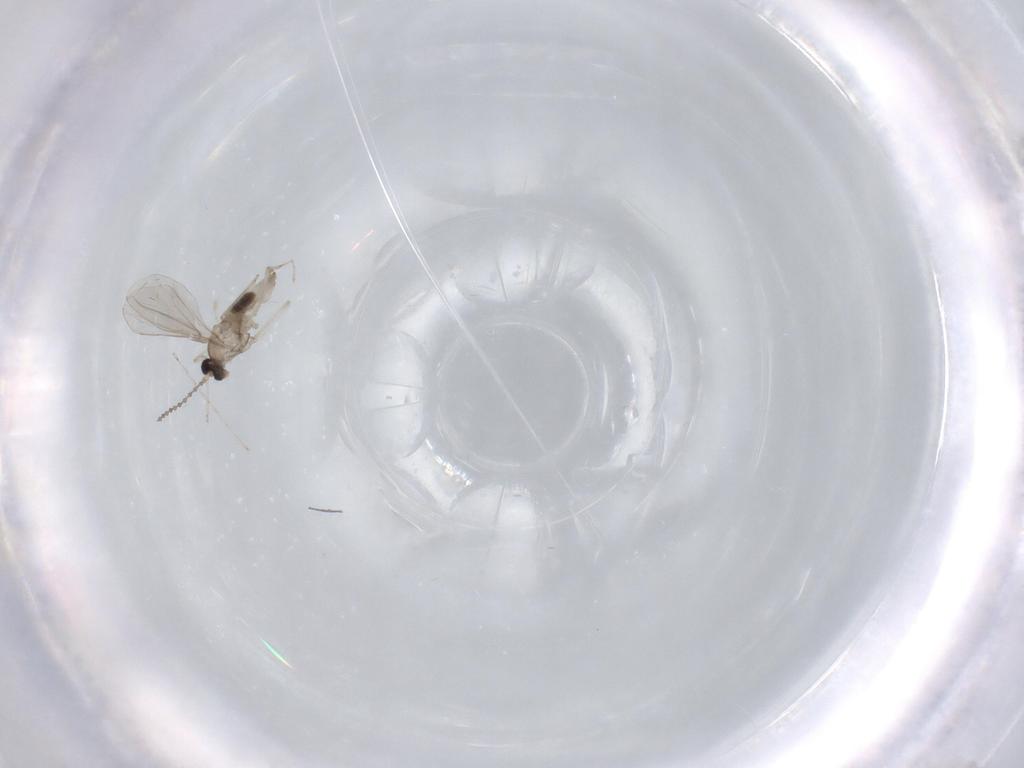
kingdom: Animalia
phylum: Arthropoda
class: Insecta
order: Diptera
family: Cecidomyiidae
